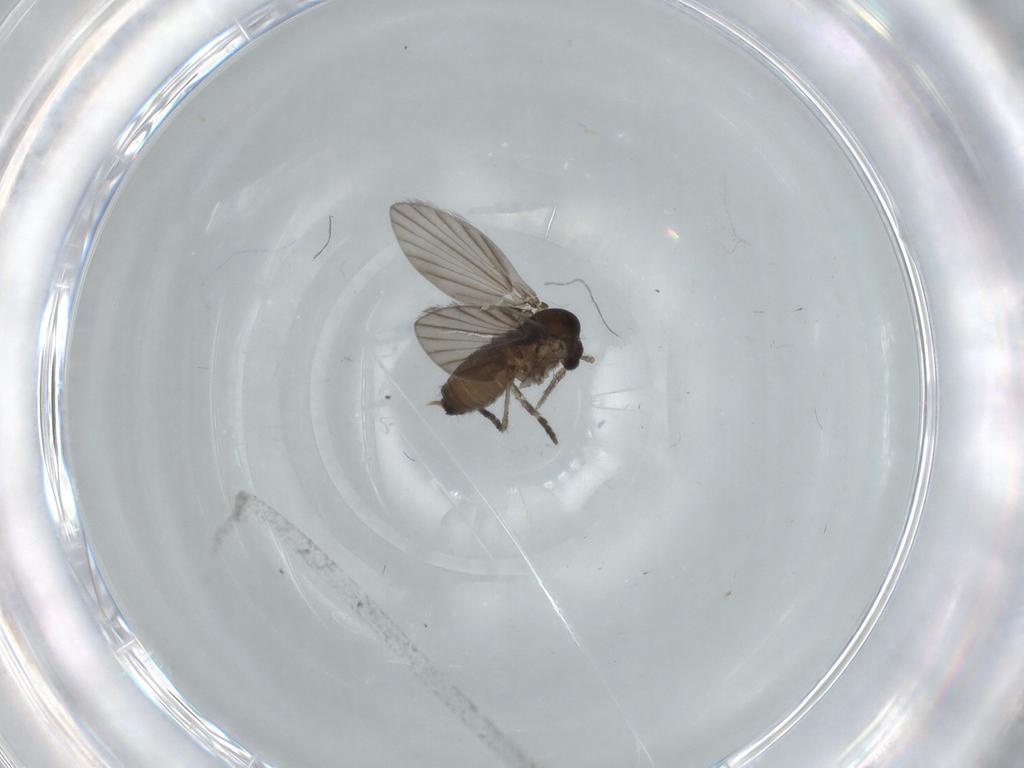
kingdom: Animalia
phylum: Arthropoda
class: Insecta
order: Diptera
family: Psychodidae
